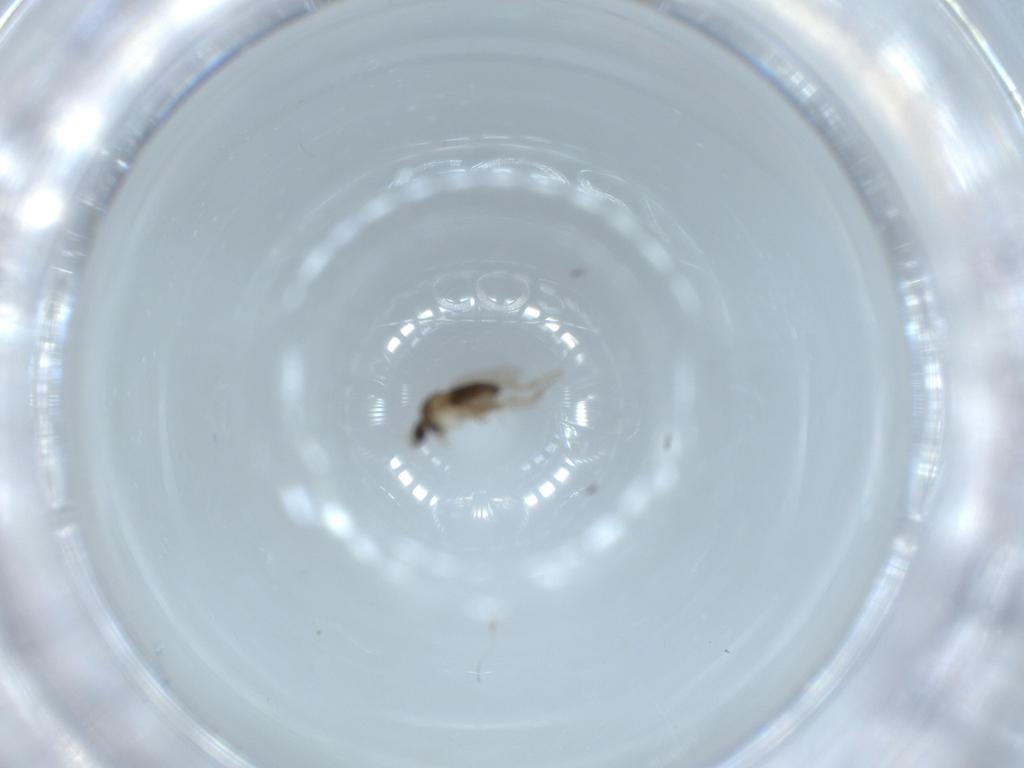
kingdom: Animalia
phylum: Arthropoda
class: Insecta
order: Diptera
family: Phoridae
